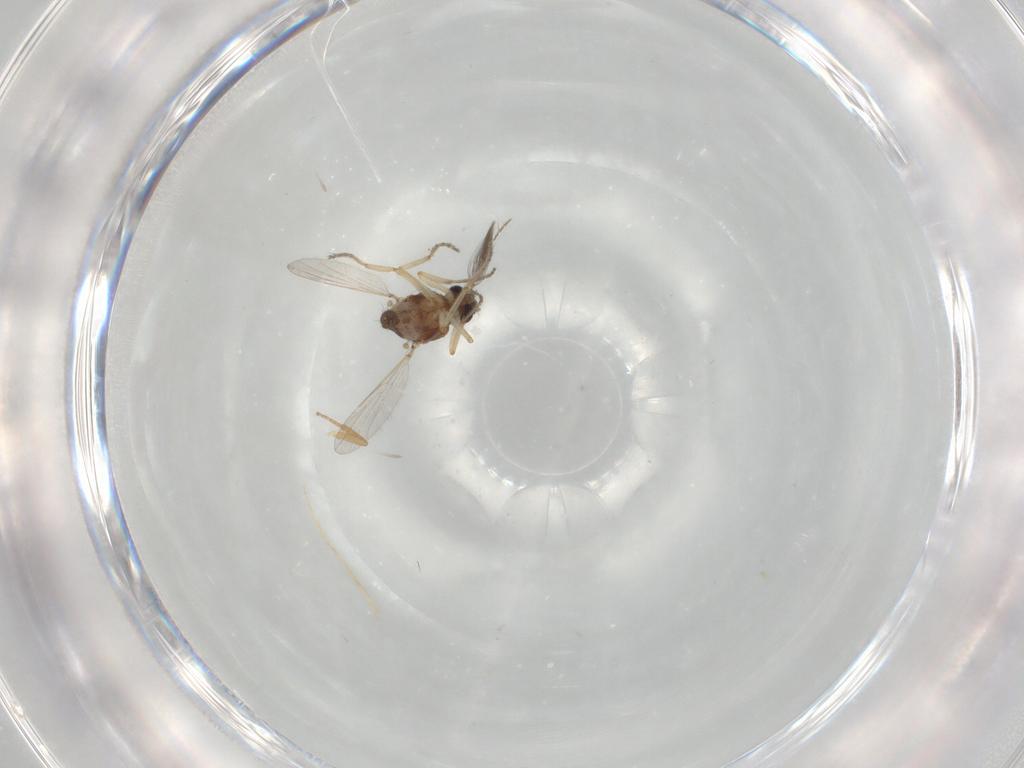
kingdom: Animalia
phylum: Arthropoda
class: Insecta
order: Diptera
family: Ceratopogonidae
